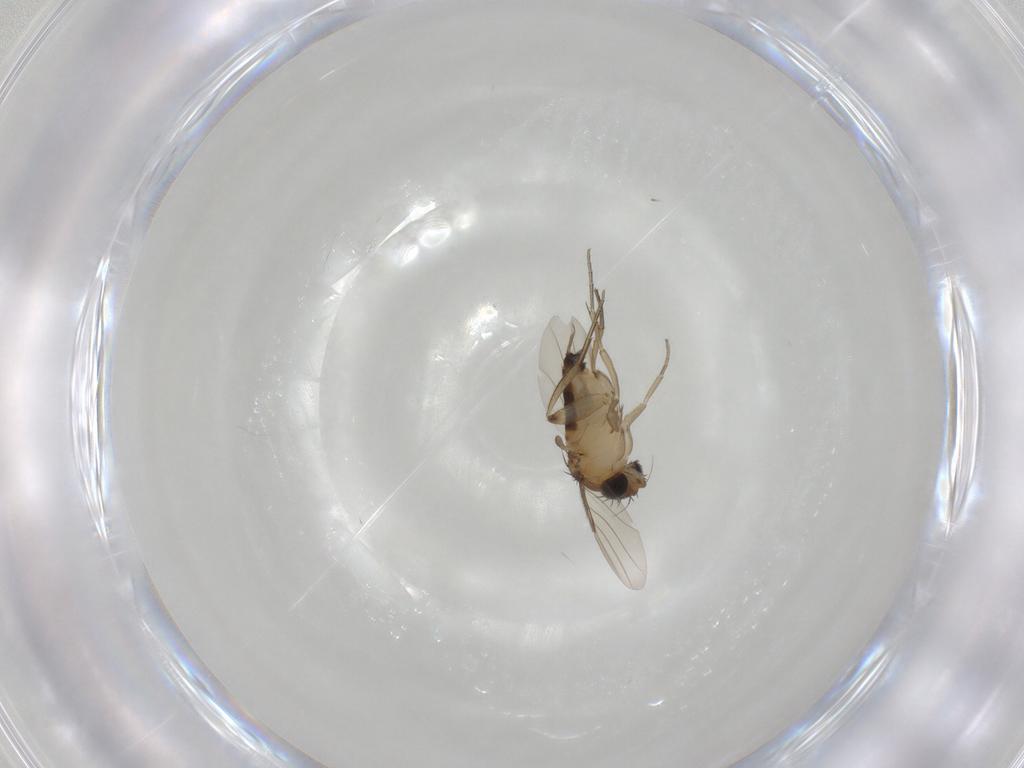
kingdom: Animalia
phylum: Arthropoda
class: Insecta
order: Diptera
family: Phoridae
